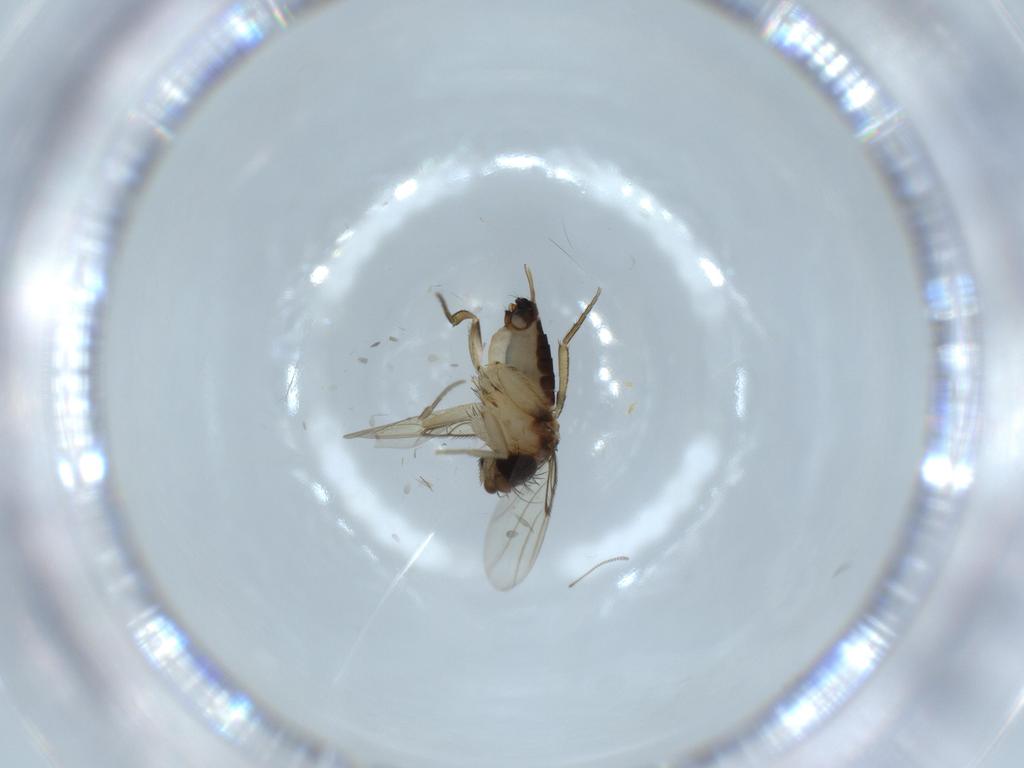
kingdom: Animalia
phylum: Arthropoda
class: Insecta
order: Diptera
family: Phoridae
